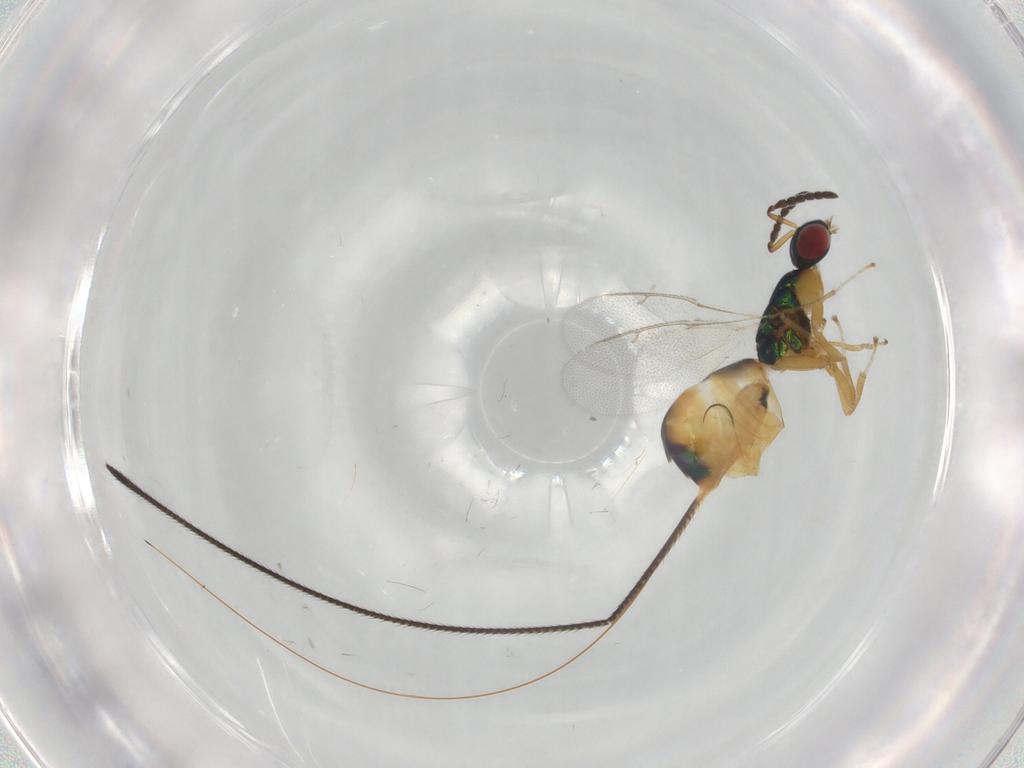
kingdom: Animalia
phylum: Arthropoda
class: Insecta
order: Hymenoptera
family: Pteromalidae
